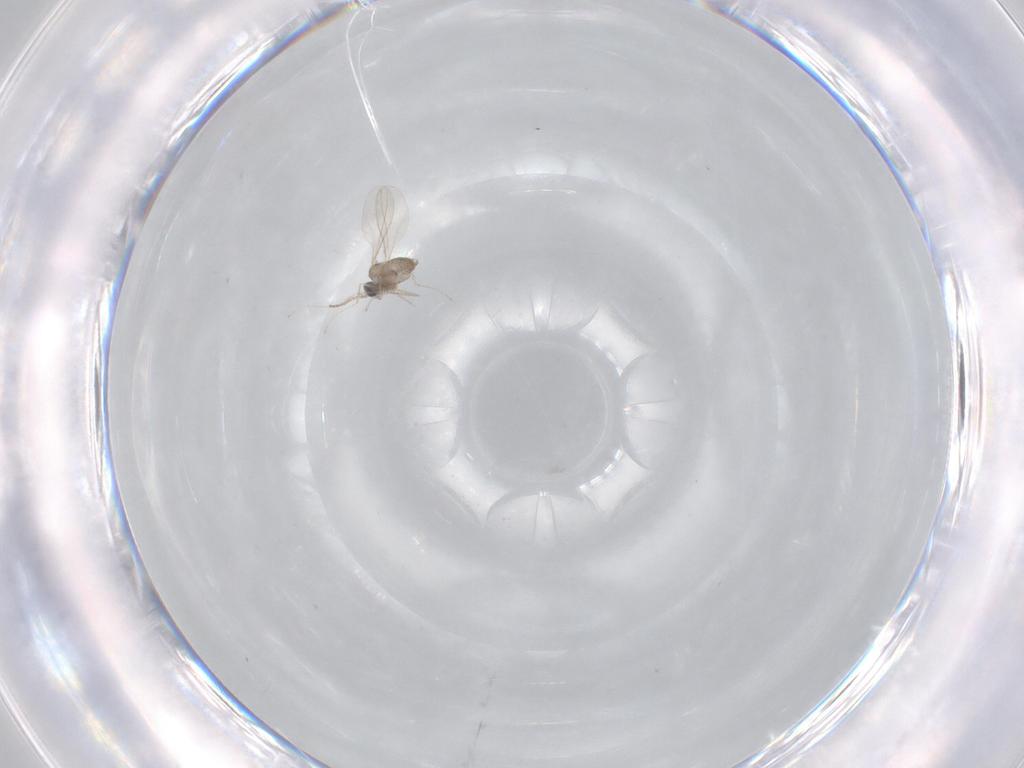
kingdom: Animalia
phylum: Arthropoda
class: Insecta
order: Diptera
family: Cecidomyiidae
